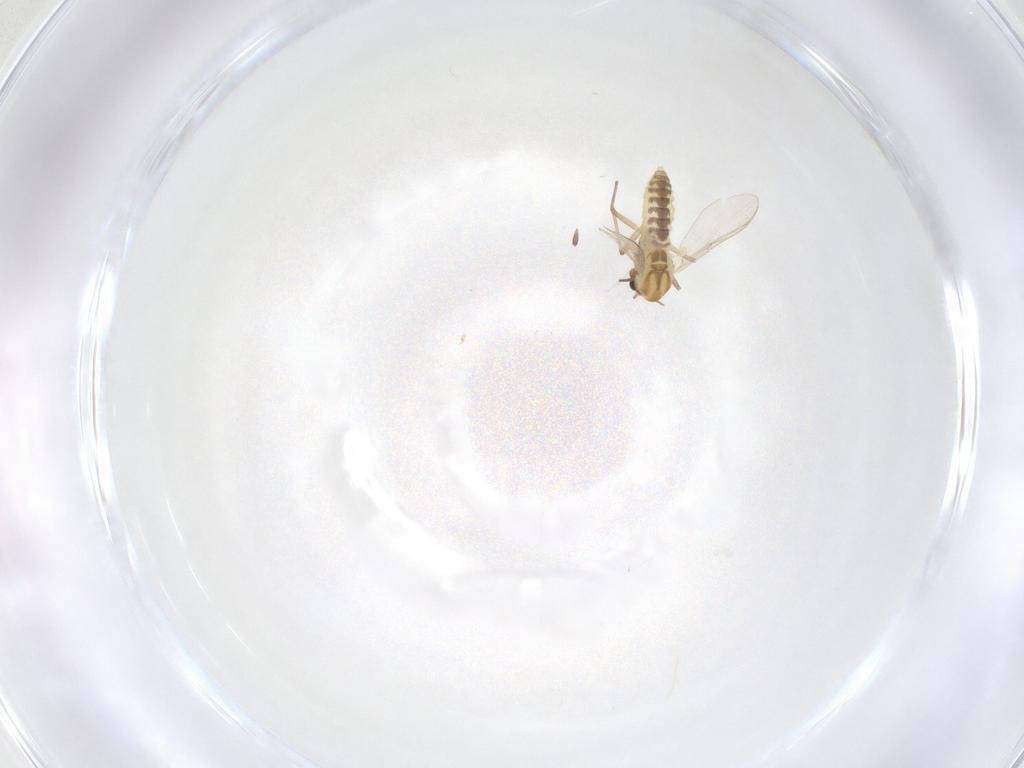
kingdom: Animalia
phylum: Arthropoda
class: Insecta
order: Diptera
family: Chironomidae
